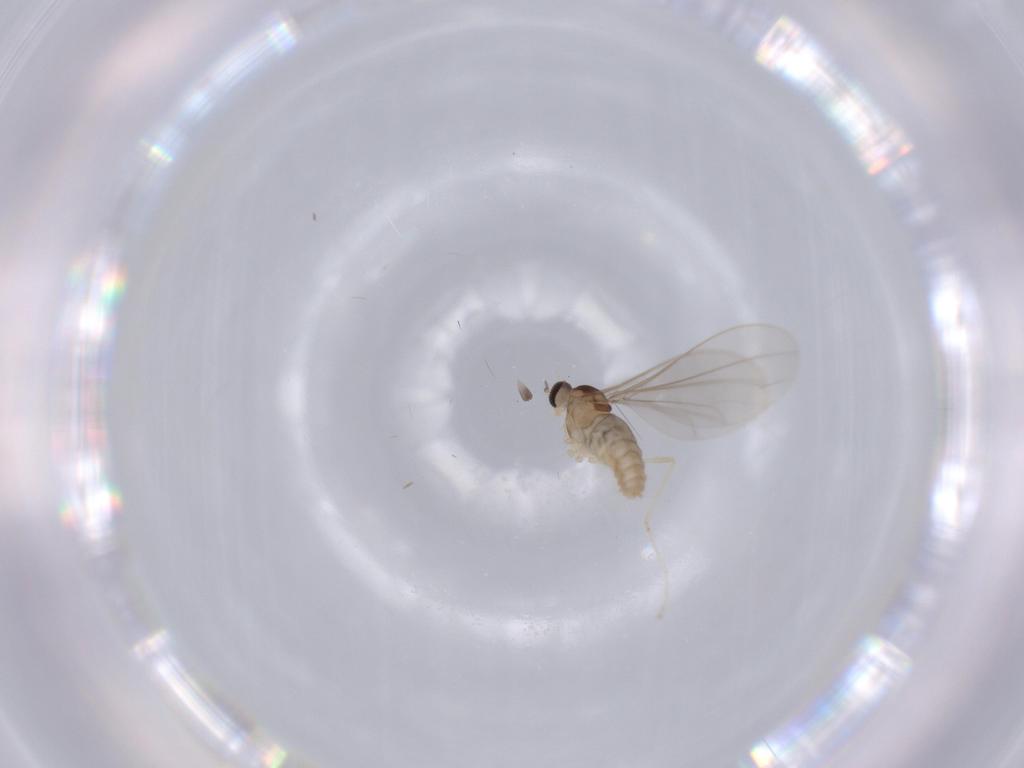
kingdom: Animalia
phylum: Arthropoda
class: Insecta
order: Diptera
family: Cecidomyiidae
